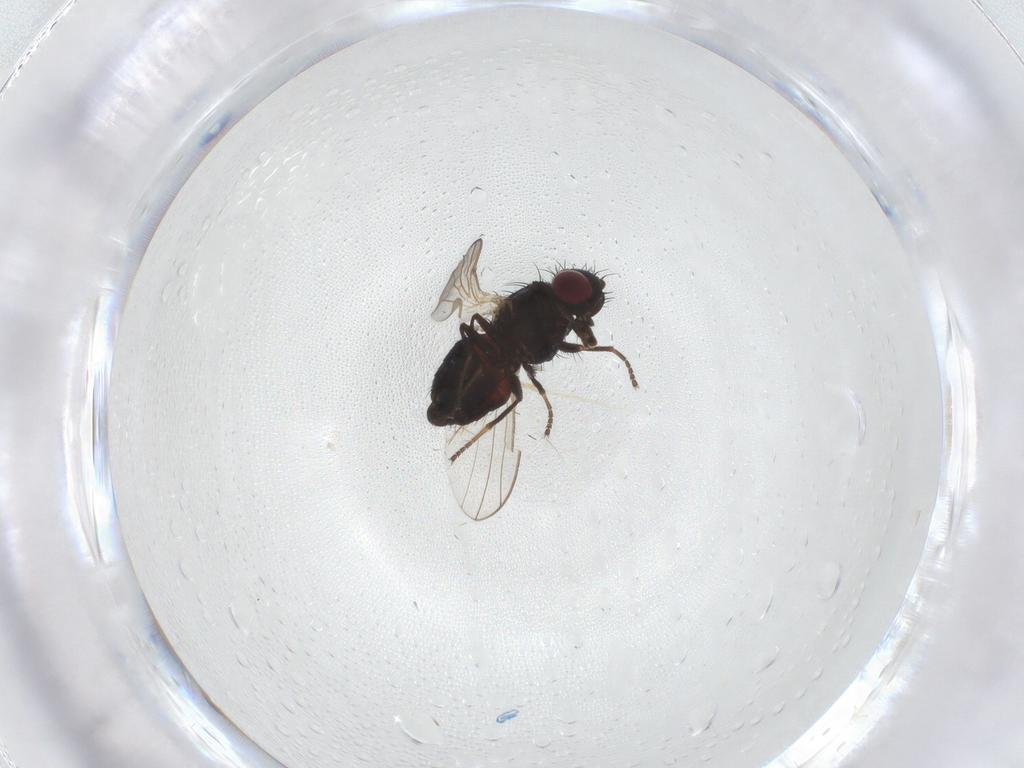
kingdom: Animalia
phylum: Arthropoda
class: Insecta
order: Diptera
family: Carnidae
